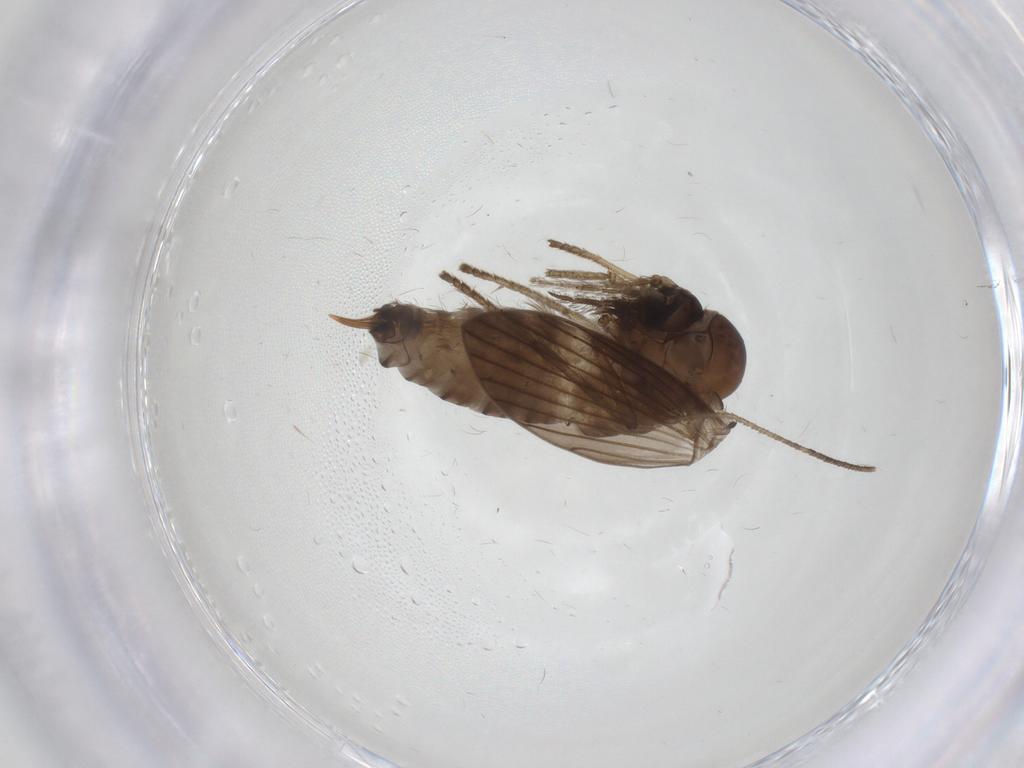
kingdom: Animalia
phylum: Arthropoda
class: Insecta
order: Diptera
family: Psychodidae
